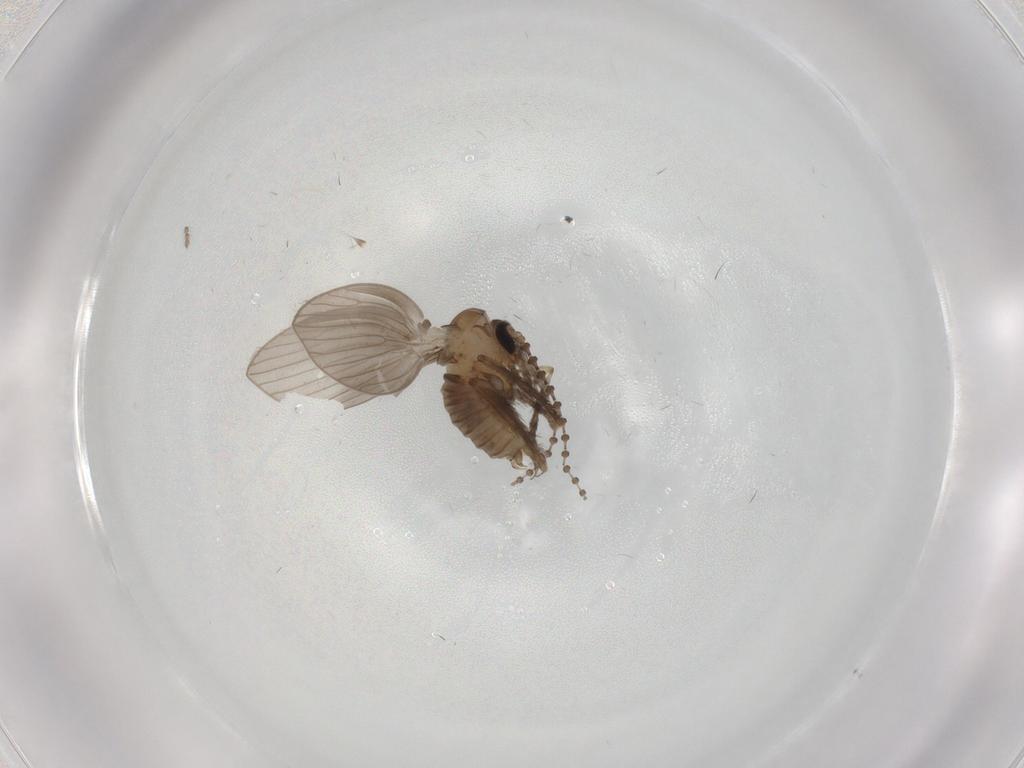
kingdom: Animalia
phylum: Arthropoda
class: Insecta
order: Diptera
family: Psychodidae
